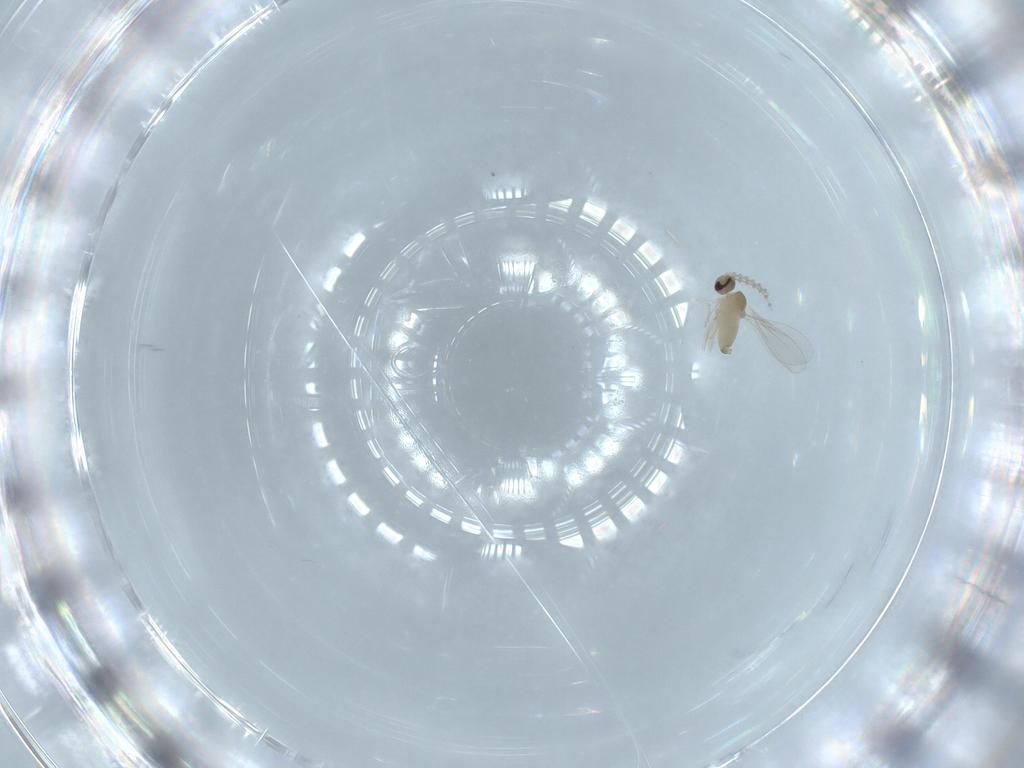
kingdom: Animalia
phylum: Arthropoda
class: Insecta
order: Diptera
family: Cecidomyiidae
